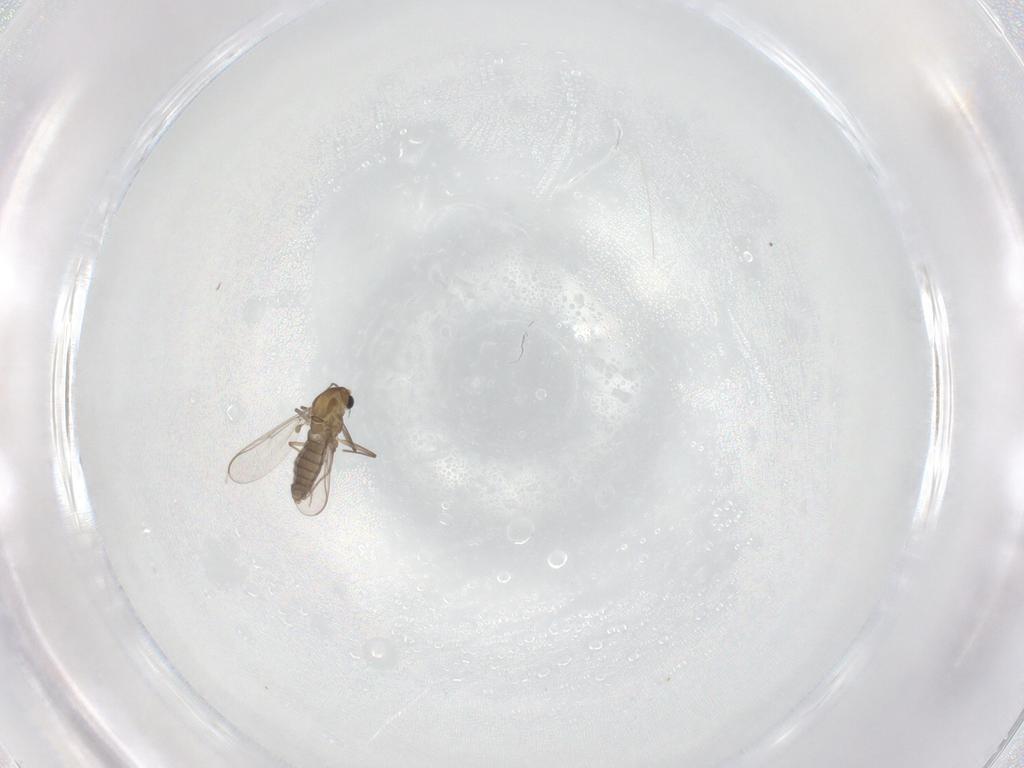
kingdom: Animalia
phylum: Arthropoda
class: Insecta
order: Diptera
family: Chironomidae
